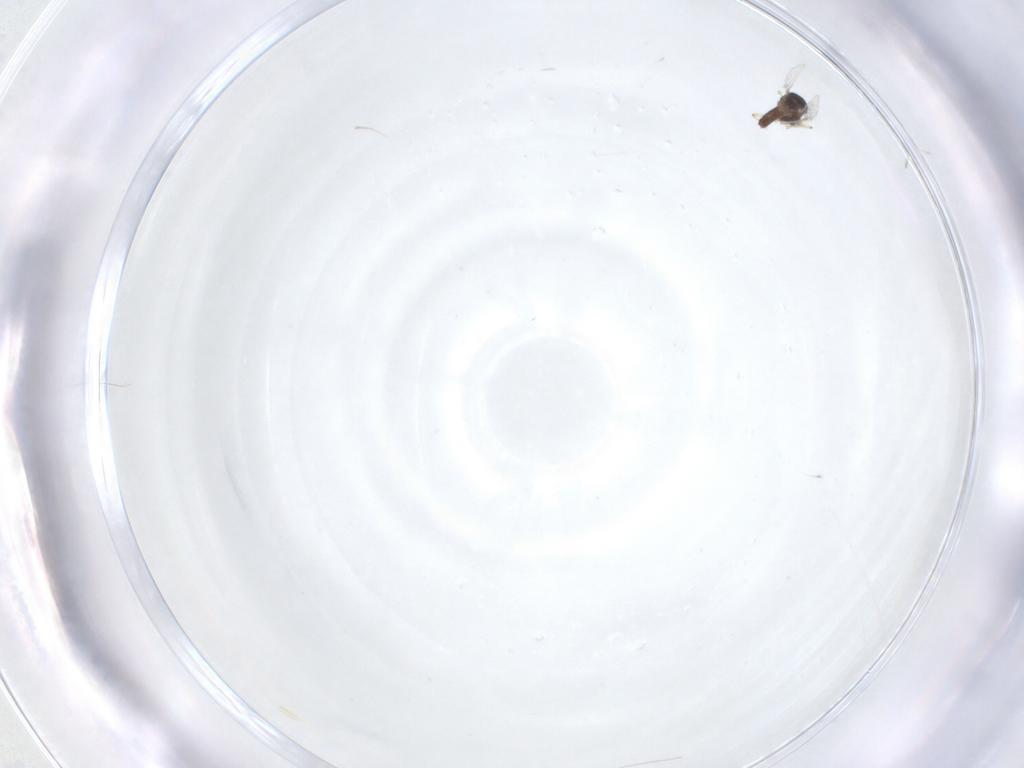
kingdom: Animalia
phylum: Arthropoda
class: Insecta
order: Diptera
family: Chironomidae
